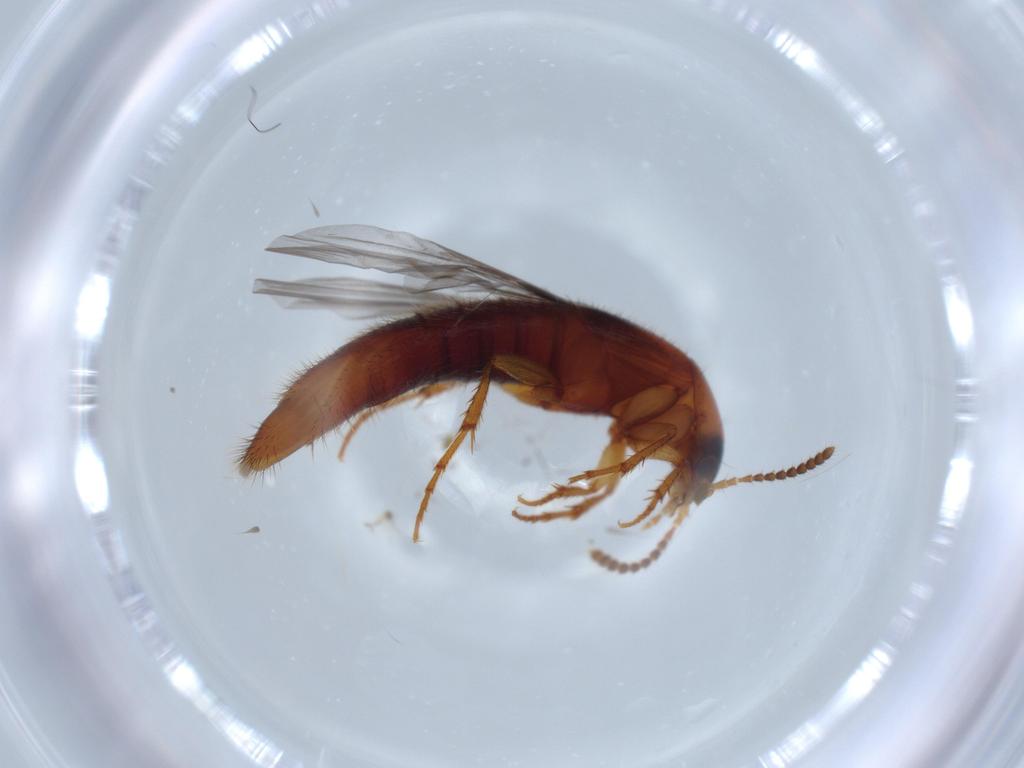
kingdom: Animalia
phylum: Arthropoda
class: Insecta
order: Coleoptera
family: Staphylinidae
